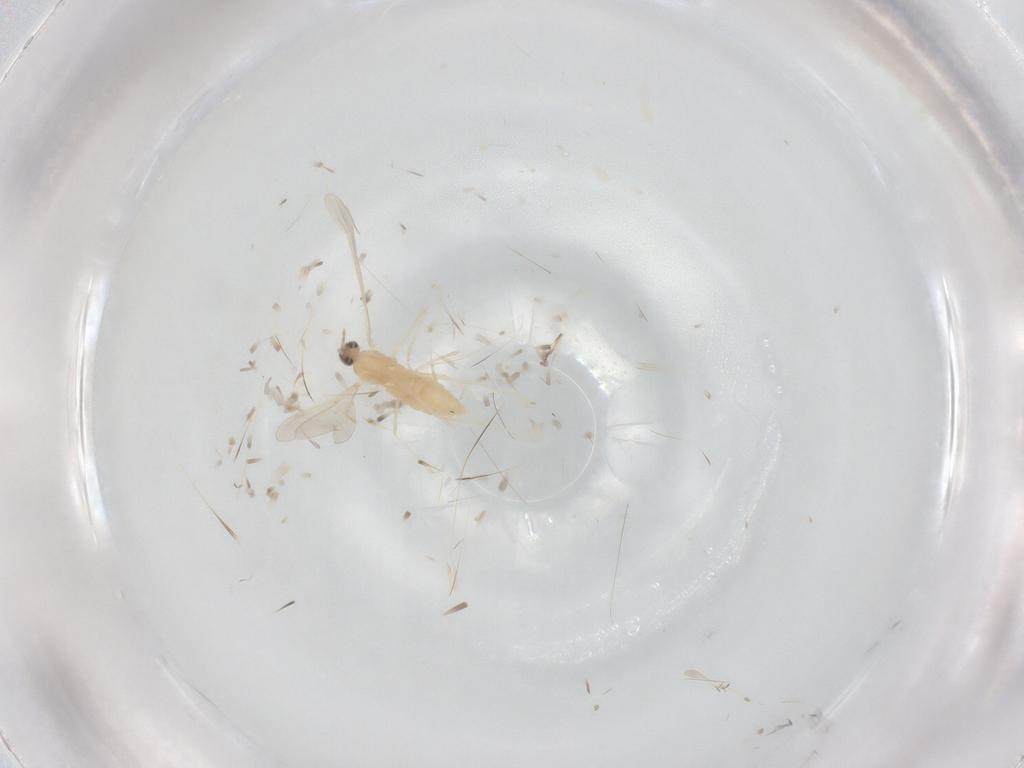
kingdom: Animalia
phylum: Arthropoda
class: Insecta
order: Diptera
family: Cecidomyiidae
